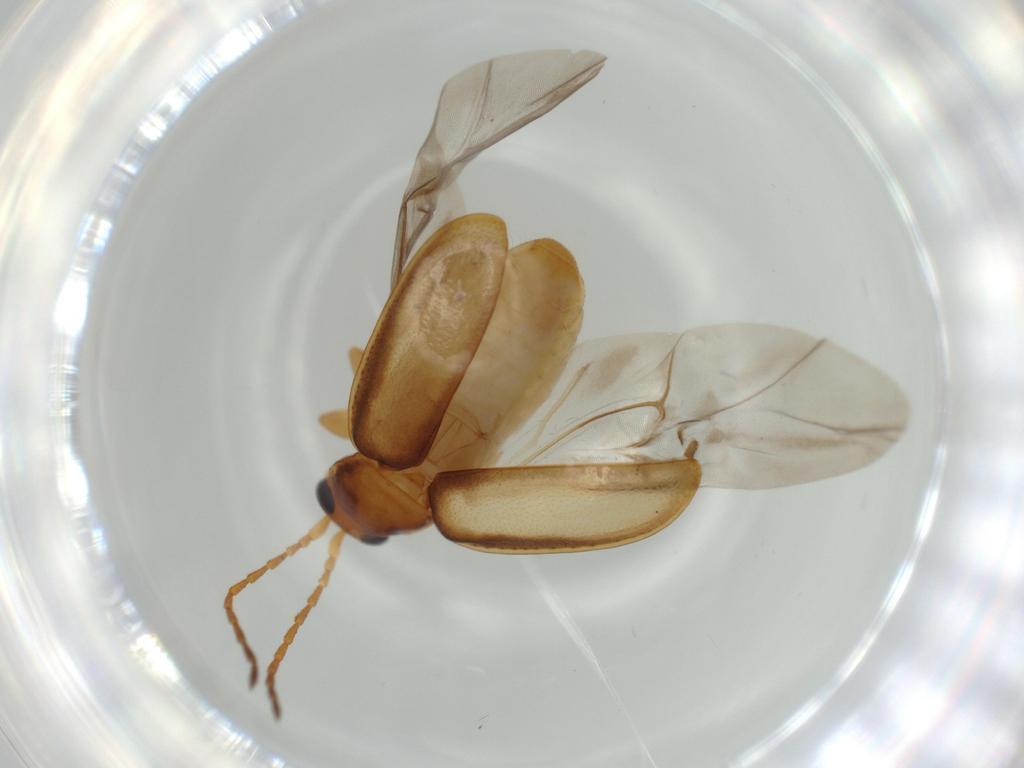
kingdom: Animalia
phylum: Arthropoda
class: Insecta
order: Coleoptera
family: Chrysomelidae
